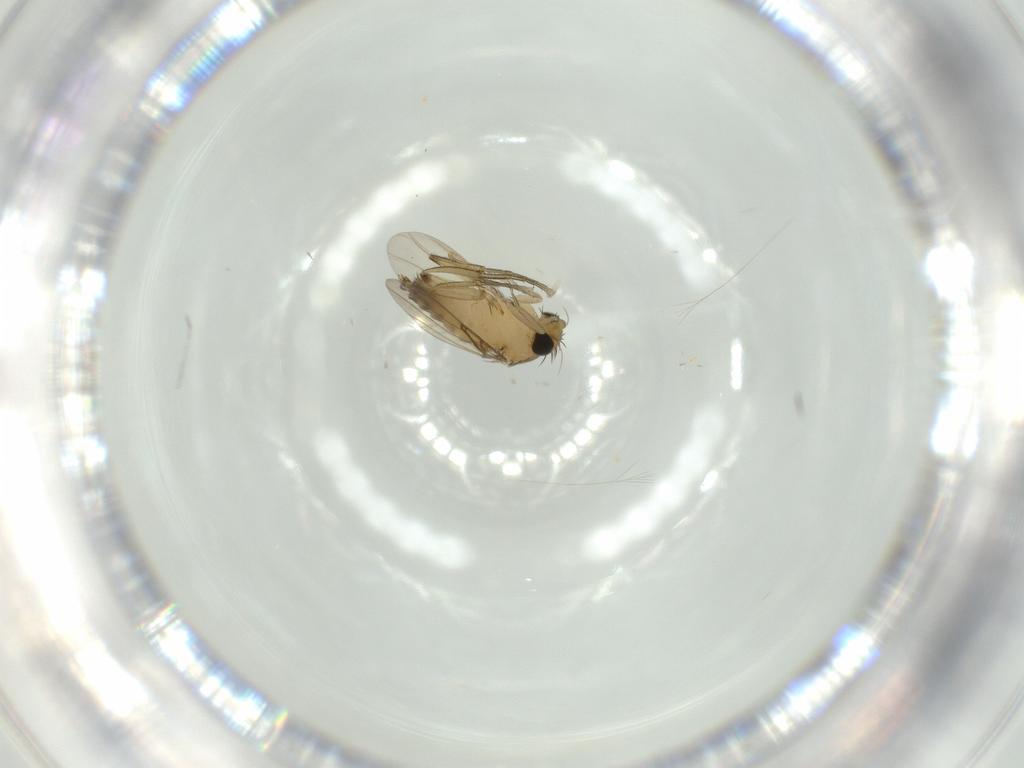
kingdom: Animalia
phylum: Arthropoda
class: Insecta
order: Diptera
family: Phoridae
